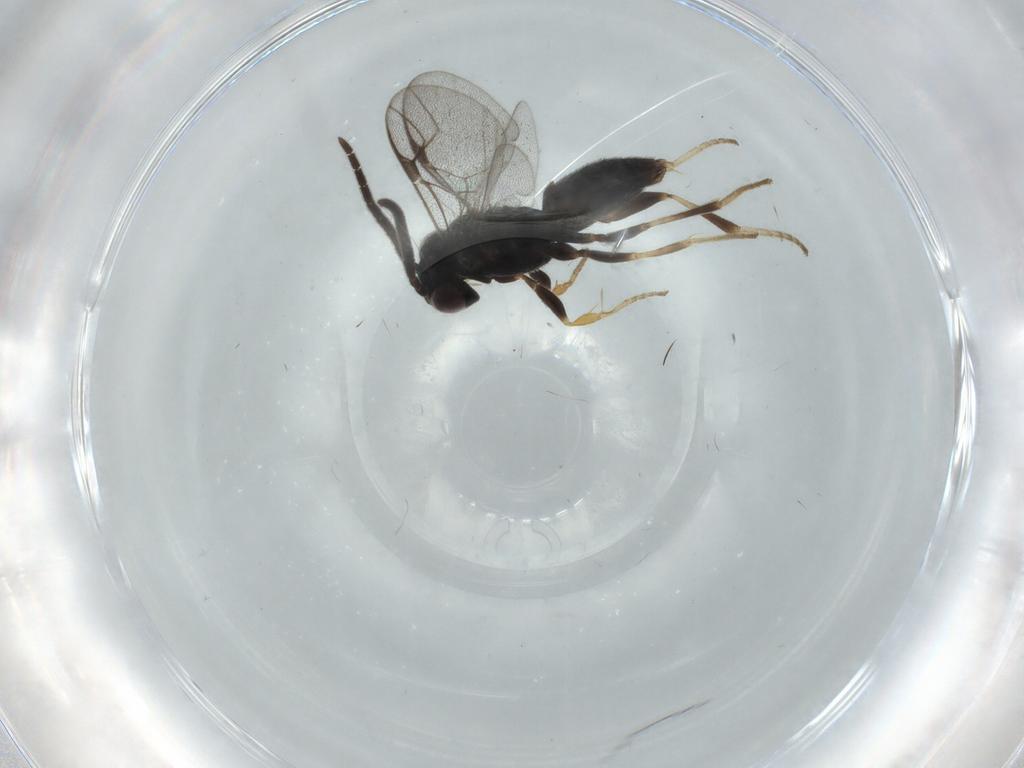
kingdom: Animalia
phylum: Arthropoda
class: Insecta
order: Hymenoptera
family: Dryinidae
